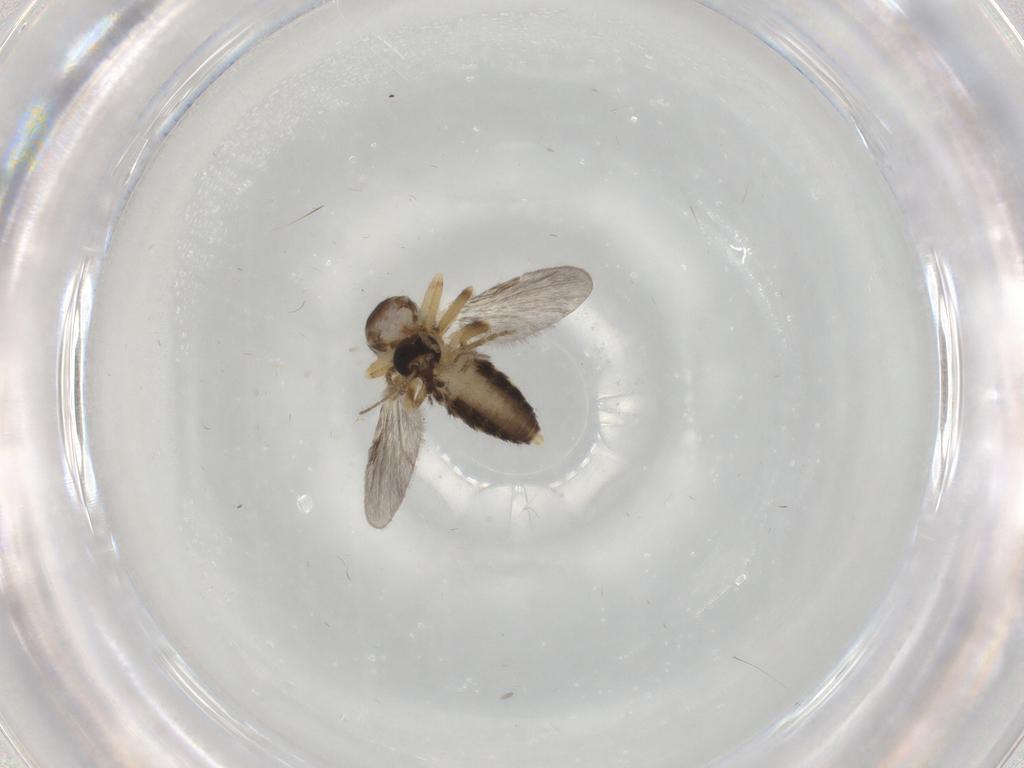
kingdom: Animalia
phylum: Arthropoda
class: Insecta
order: Diptera
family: Ceratopogonidae
